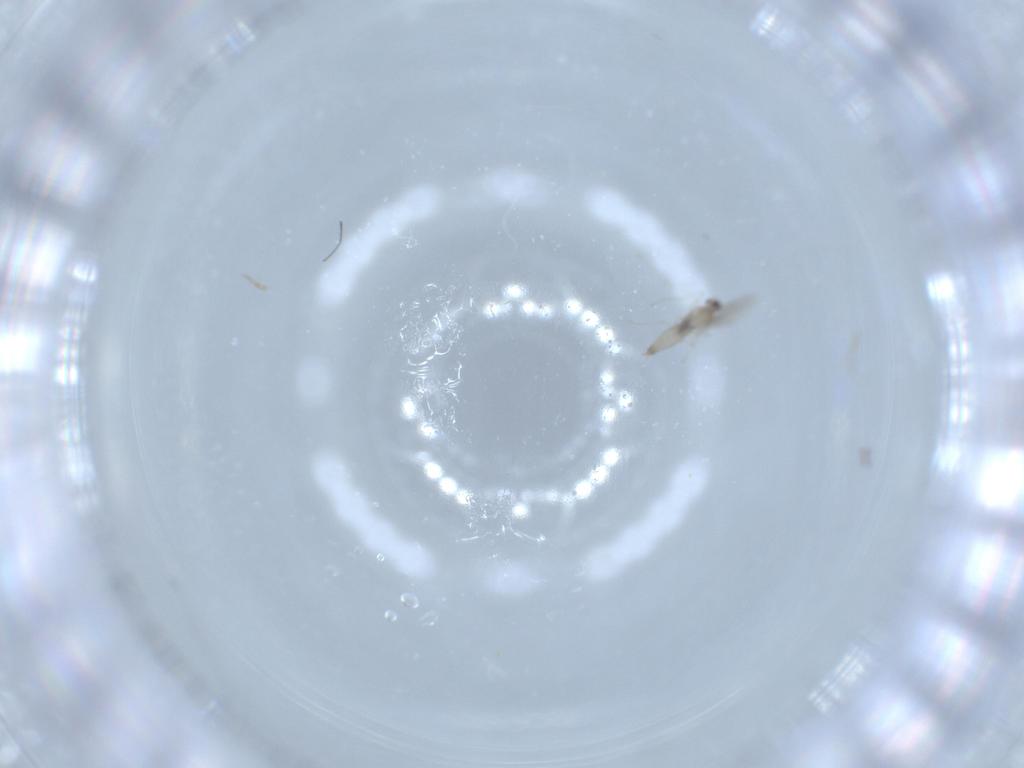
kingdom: Animalia
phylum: Arthropoda
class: Insecta
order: Diptera
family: Cecidomyiidae
